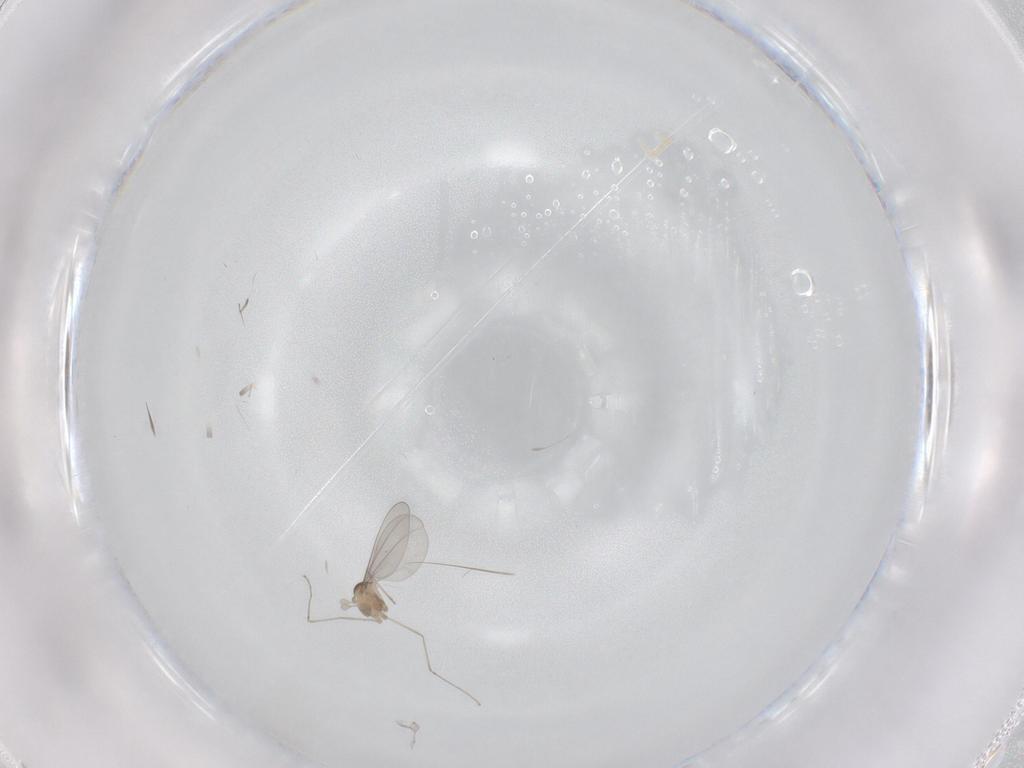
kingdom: Animalia
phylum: Arthropoda
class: Insecta
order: Diptera
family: Cecidomyiidae
